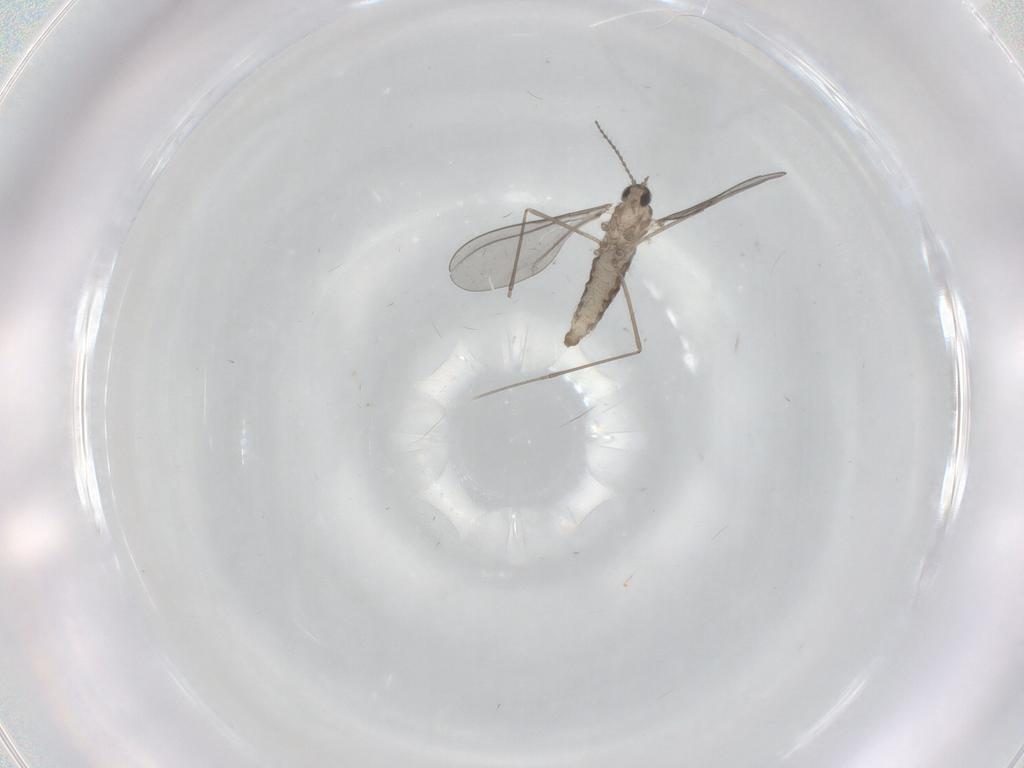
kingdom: Animalia
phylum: Arthropoda
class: Insecta
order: Diptera
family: Cecidomyiidae
